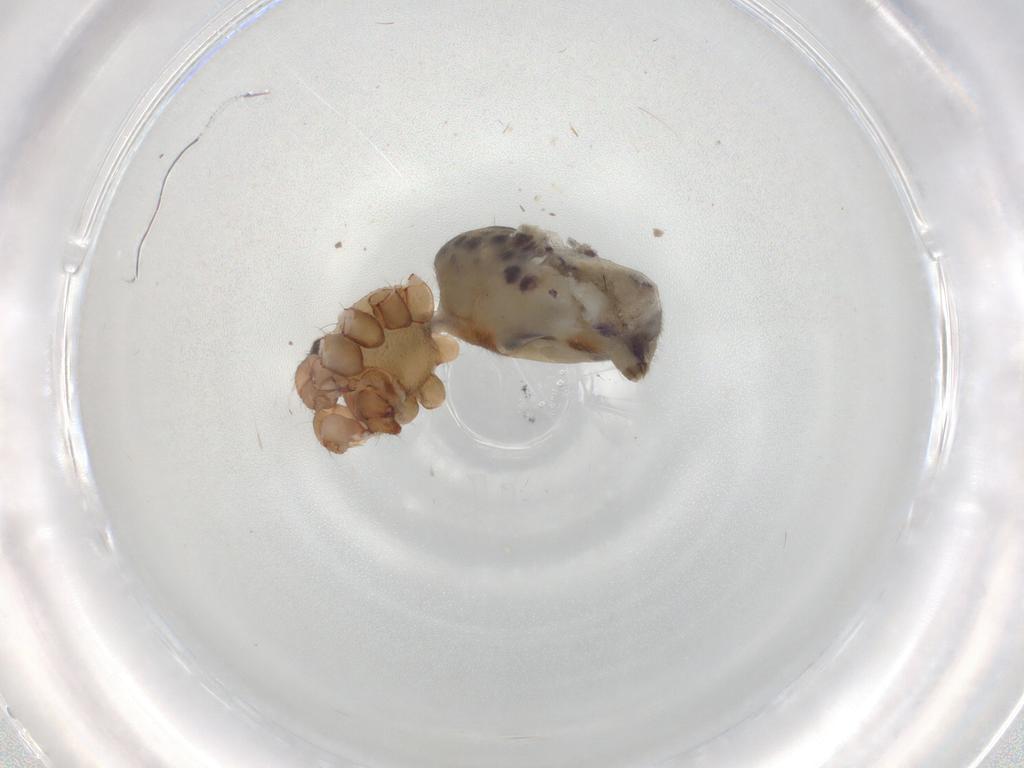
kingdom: Animalia
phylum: Arthropoda
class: Arachnida
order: Araneae
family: Pholcidae
